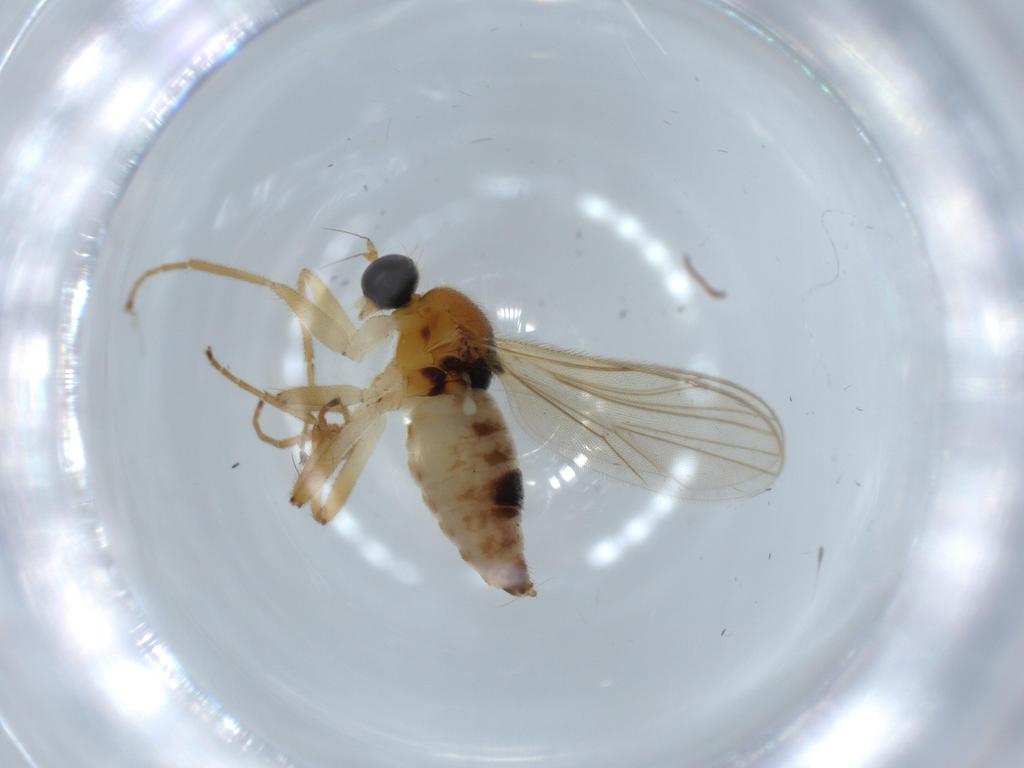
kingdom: Animalia
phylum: Arthropoda
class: Insecta
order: Diptera
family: Hybotidae
